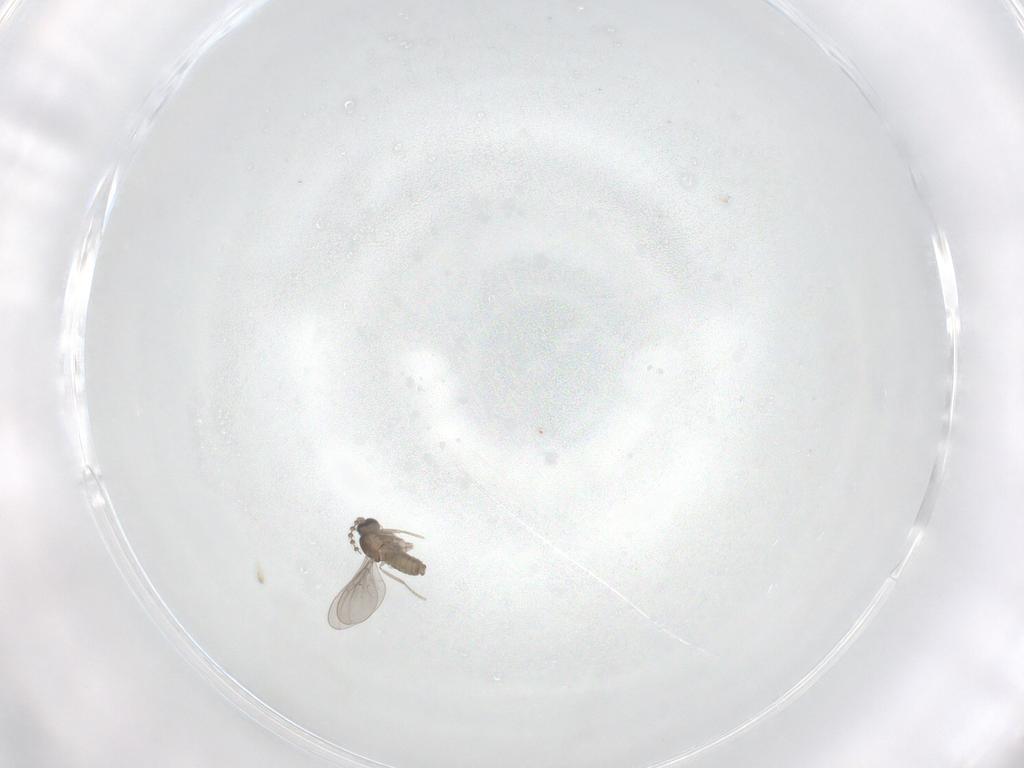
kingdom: Animalia
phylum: Arthropoda
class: Insecta
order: Diptera
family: Cecidomyiidae
